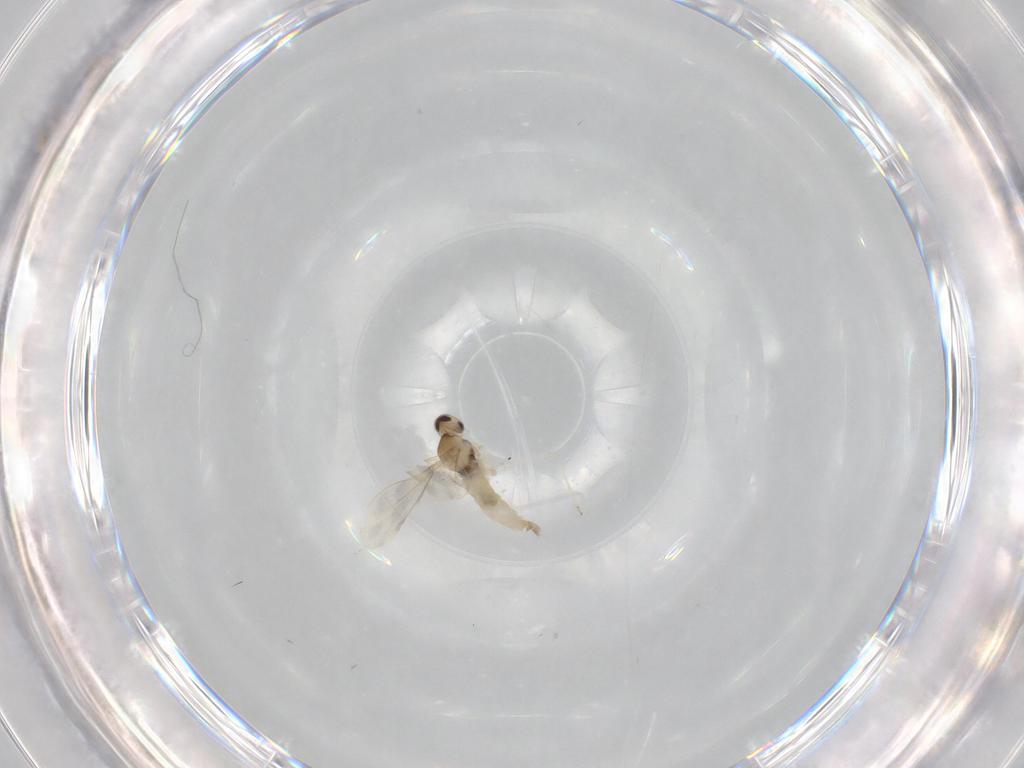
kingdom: Animalia
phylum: Arthropoda
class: Insecta
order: Diptera
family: Cecidomyiidae
